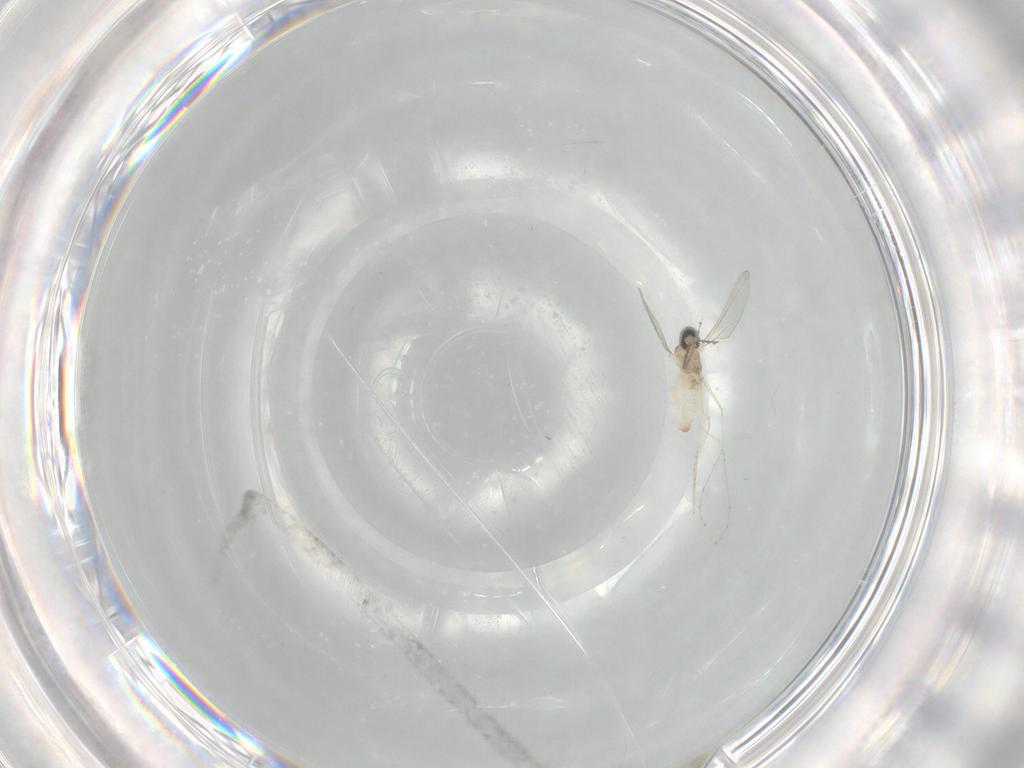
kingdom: Animalia
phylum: Arthropoda
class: Insecta
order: Diptera
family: Cecidomyiidae
